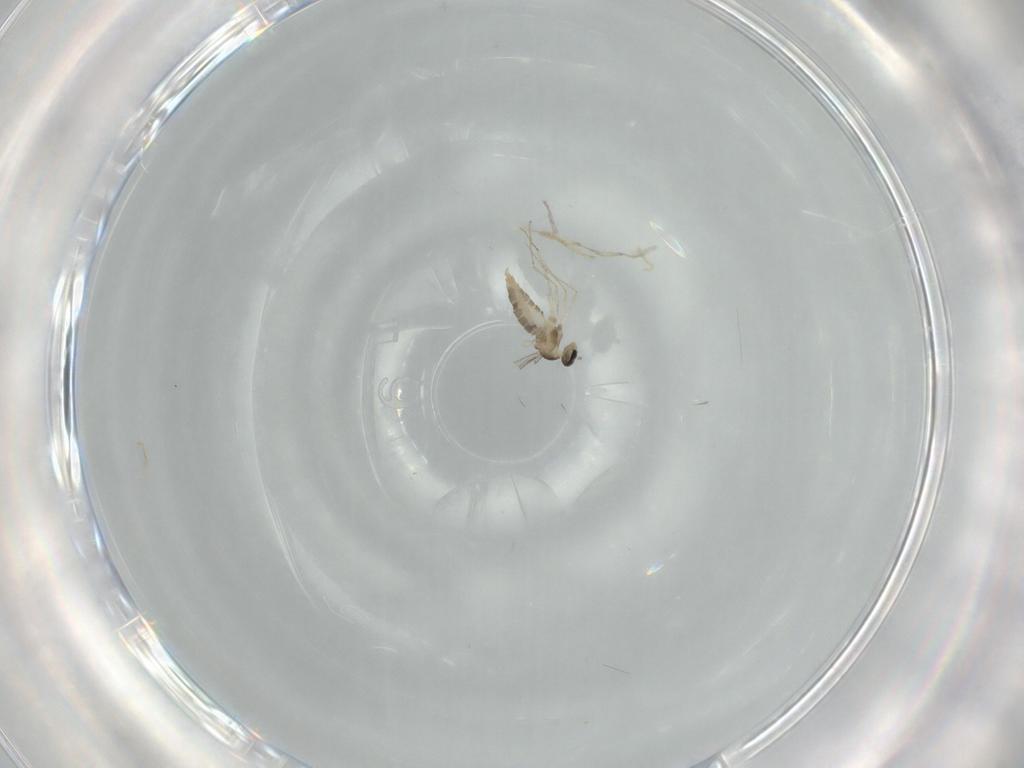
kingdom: Animalia
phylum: Arthropoda
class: Insecta
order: Diptera
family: Cecidomyiidae
